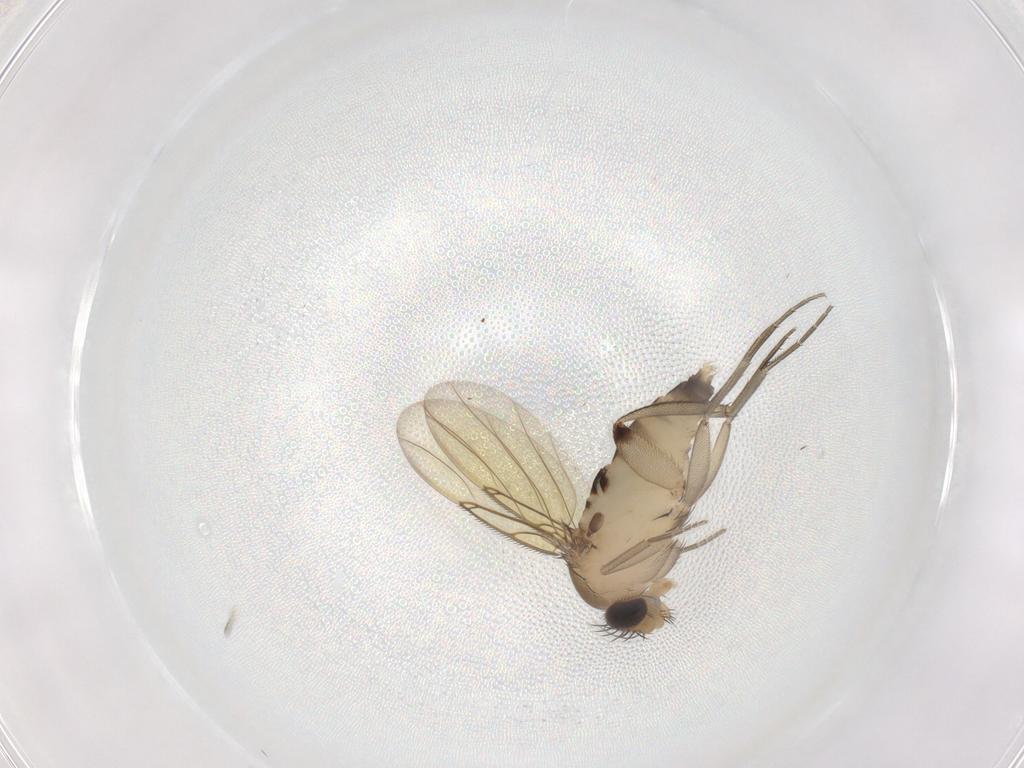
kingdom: Animalia
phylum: Arthropoda
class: Insecta
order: Diptera
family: Phoridae
